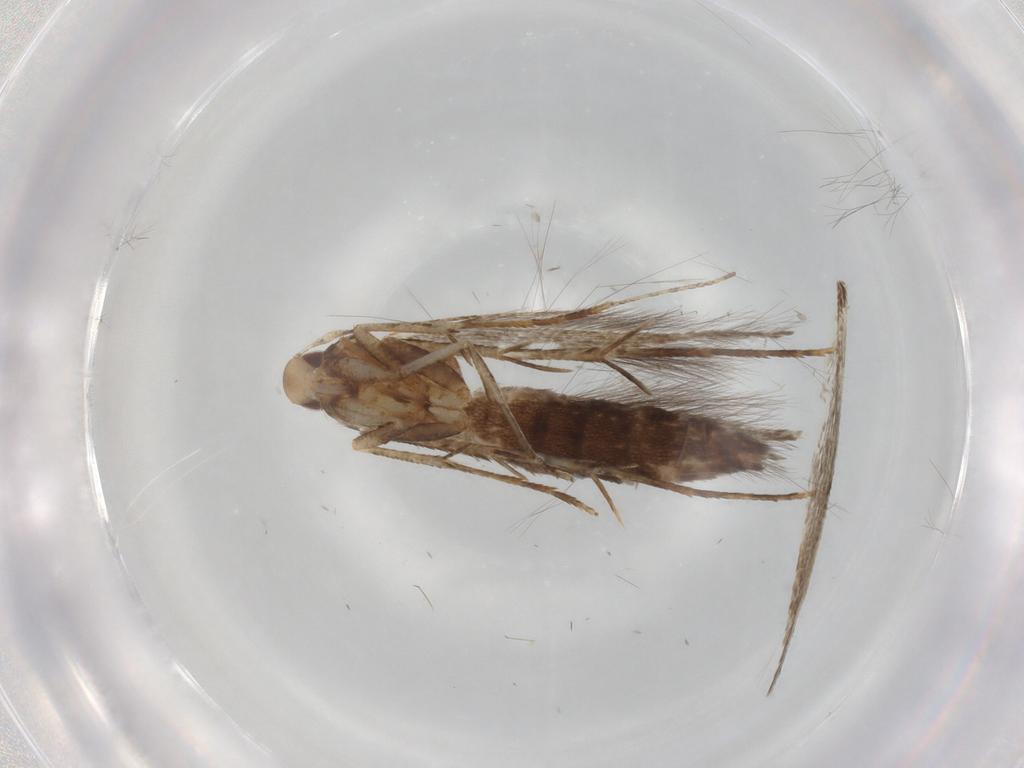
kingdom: Animalia
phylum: Arthropoda
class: Insecta
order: Lepidoptera
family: Cosmopterigidae
